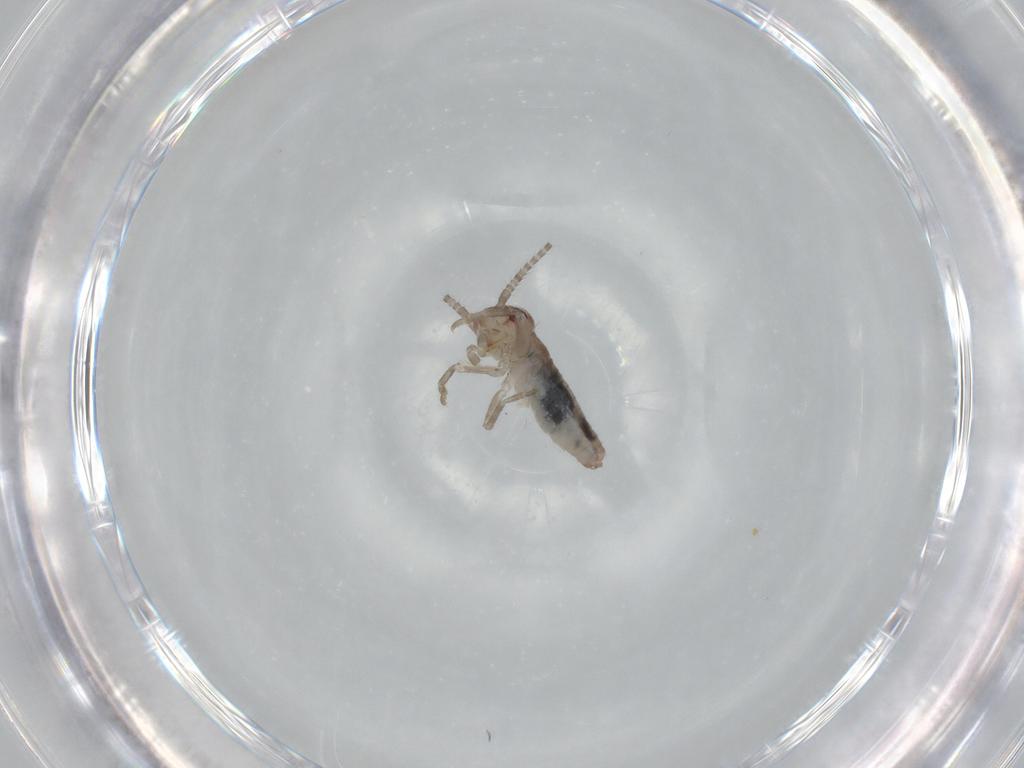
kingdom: Animalia
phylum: Arthropoda
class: Insecta
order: Orthoptera
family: Gryllidae
